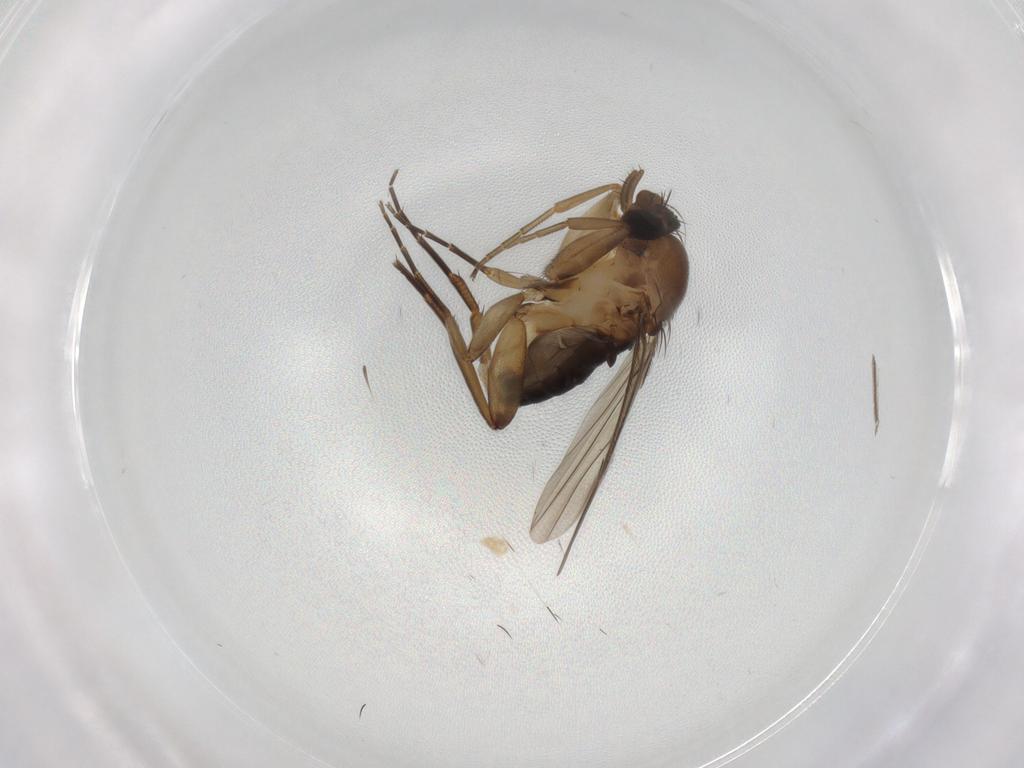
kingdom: Animalia
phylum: Arthropoda
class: Insecta
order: Diptera
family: Phoridae
